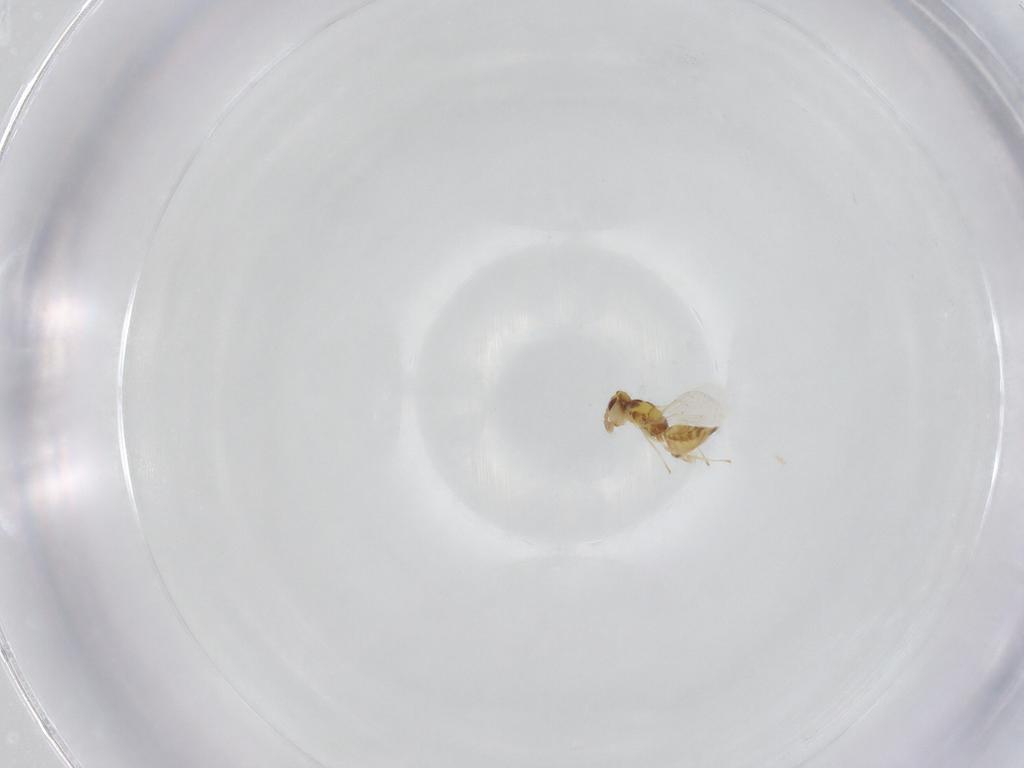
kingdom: Animalia
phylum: Arthropoda
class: Insecta
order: Hymenoptera
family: Eulophidae
